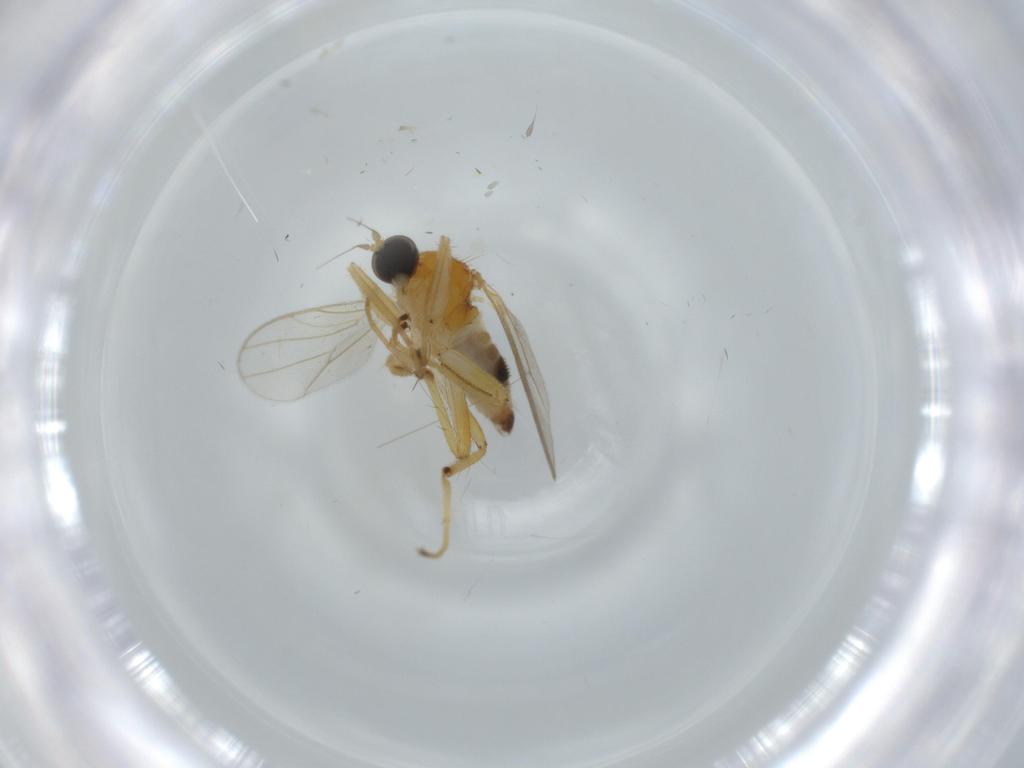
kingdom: Animalia
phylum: Arthropoda
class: Insecta
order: Diptera
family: Hybotidae
